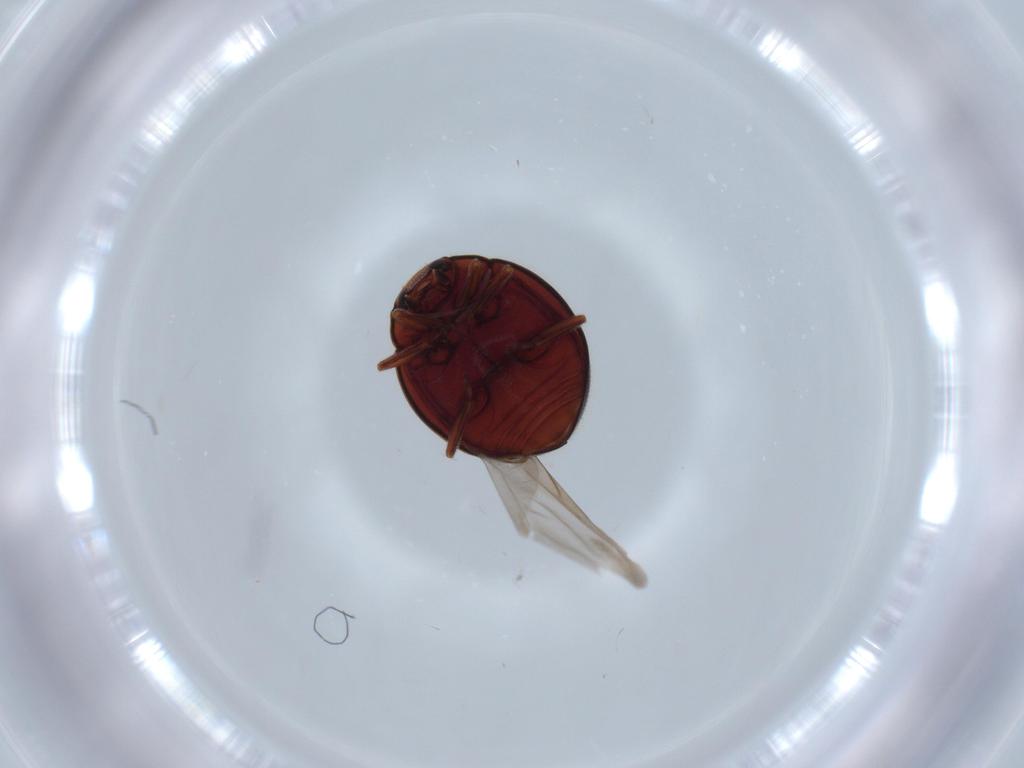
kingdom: Animalia
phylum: Arthropoda
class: Insecta
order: Coleoptera
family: Coccinellidae
